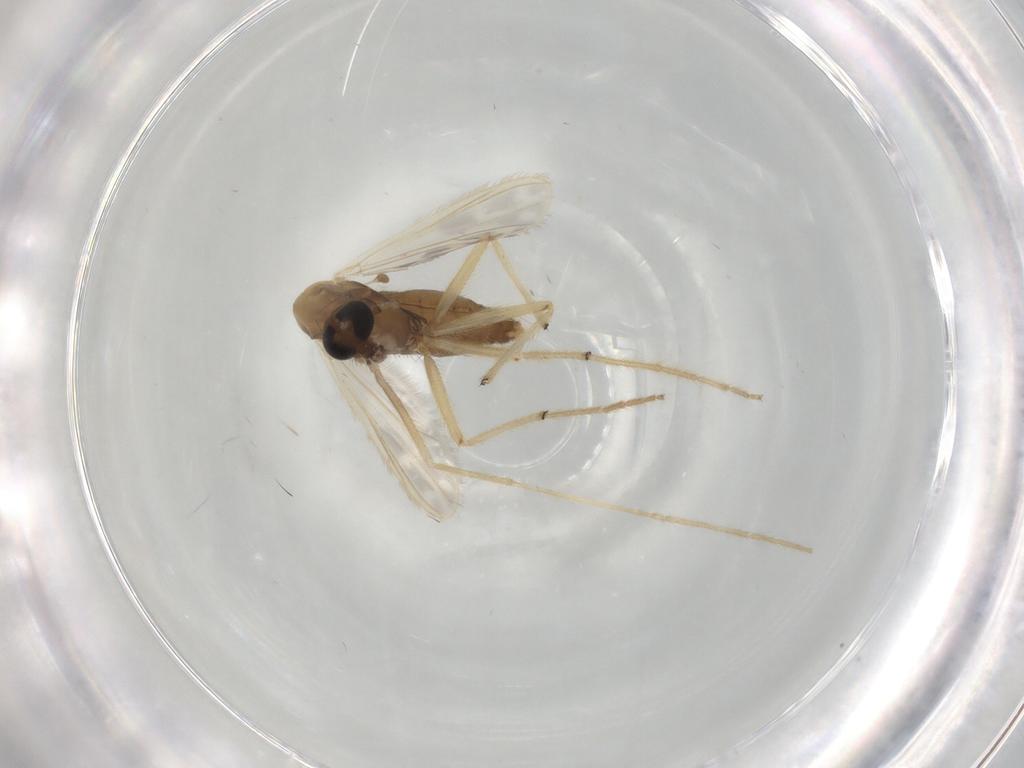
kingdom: Animalia
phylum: Arthropoda
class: Insecta
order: Diptera
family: Chironomidae
